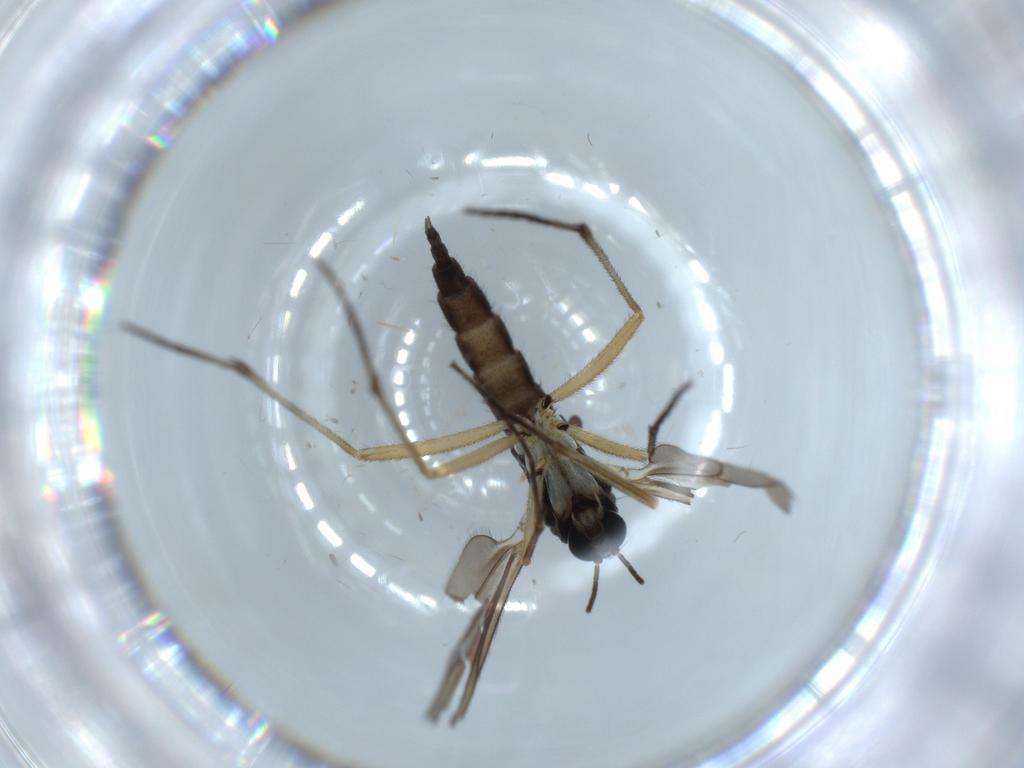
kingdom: Animalia
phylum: Arthropoda
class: Insecta
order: Diptera
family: Sciaridae
